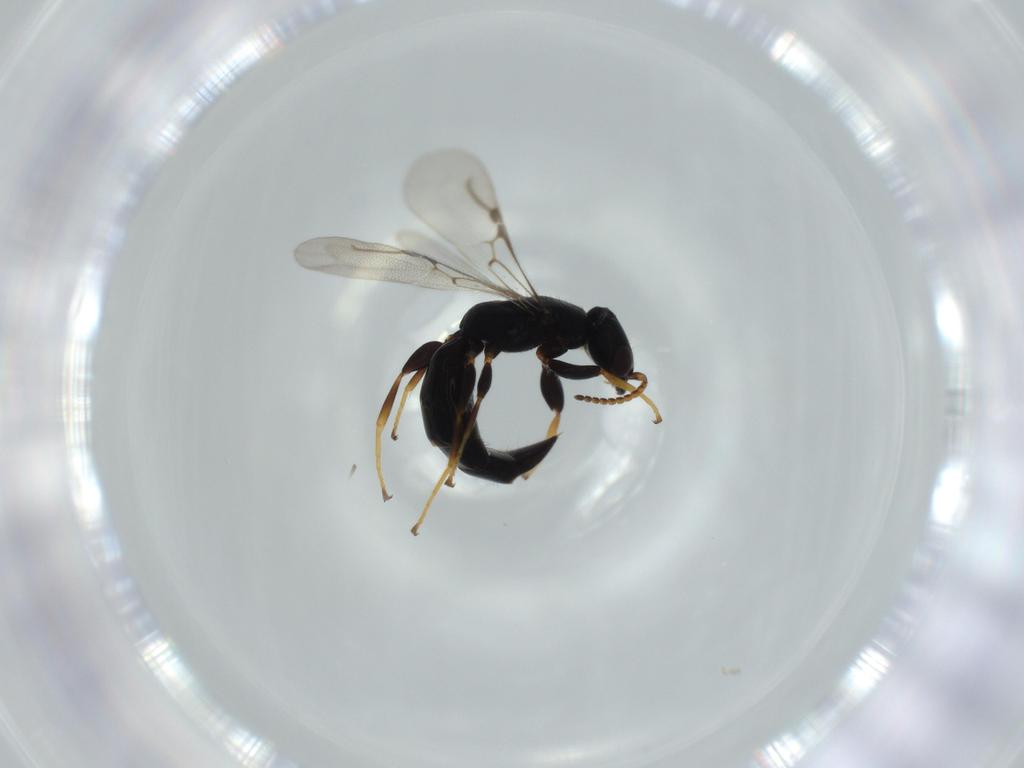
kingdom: Animalia
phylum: Arthropoda
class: Insecta
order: Hymenoptera
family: Bethylidae
